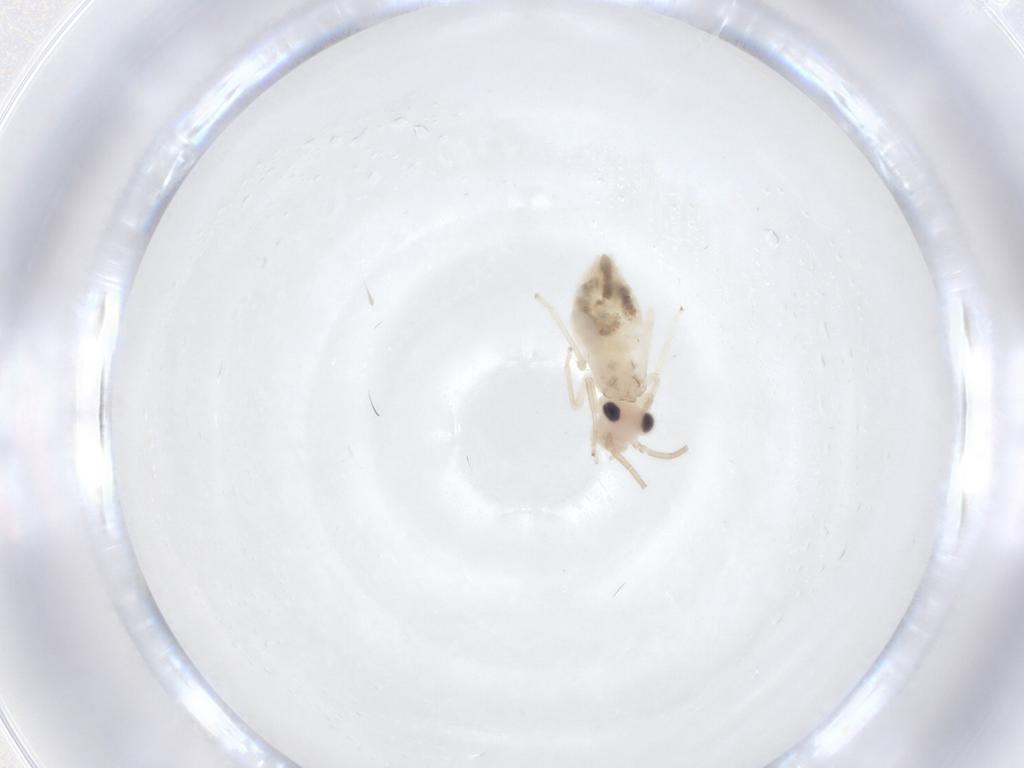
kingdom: Animalia
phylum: Arthropoda
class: Insecta
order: Psocodea
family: Caeciliusidae
